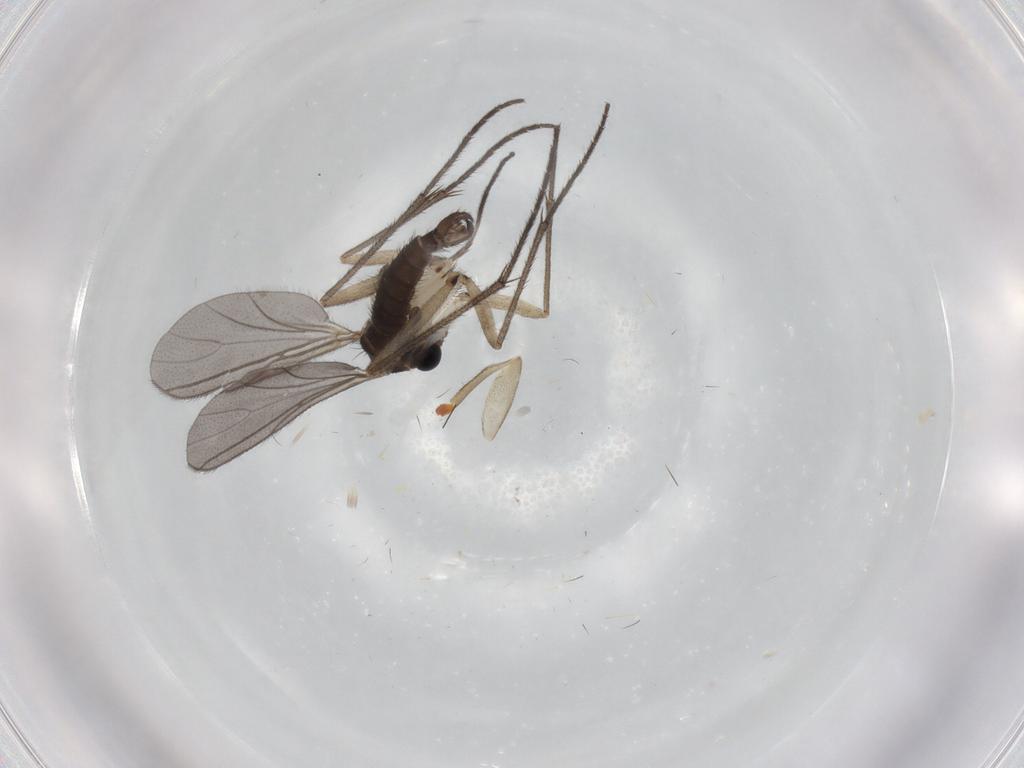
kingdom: Animalia
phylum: Arthropoda
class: Insecta
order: Diptera
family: Sciaridae
